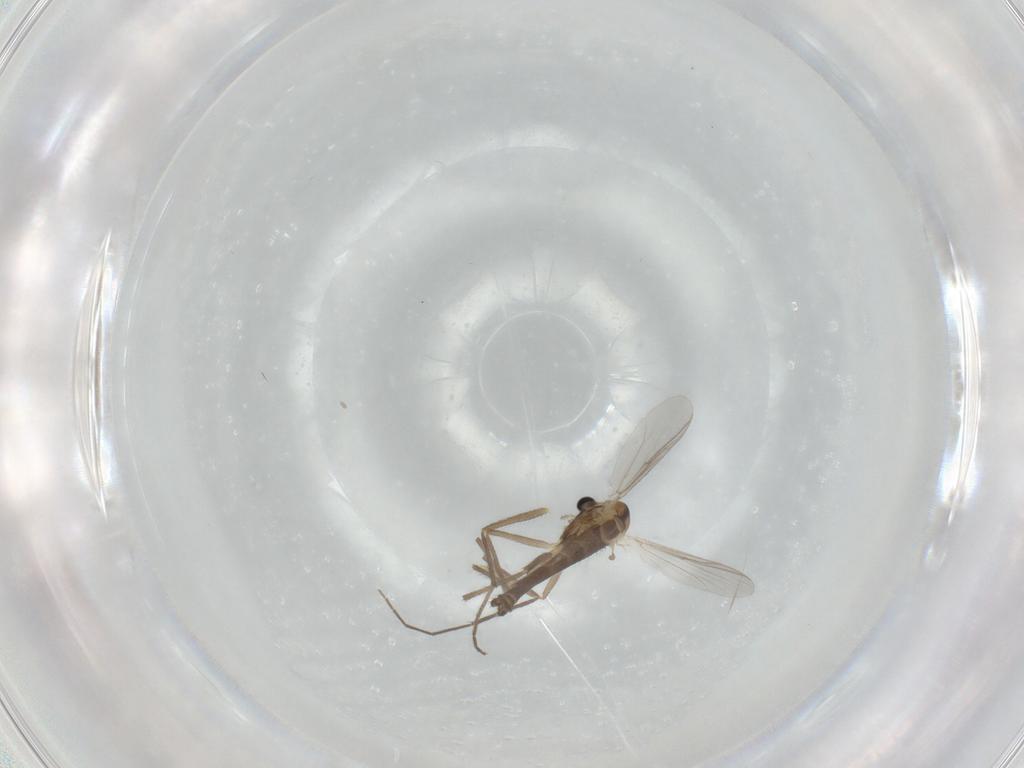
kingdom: Animalia
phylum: Arthropoda
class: Insecta
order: Diptera
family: Chironomidae
